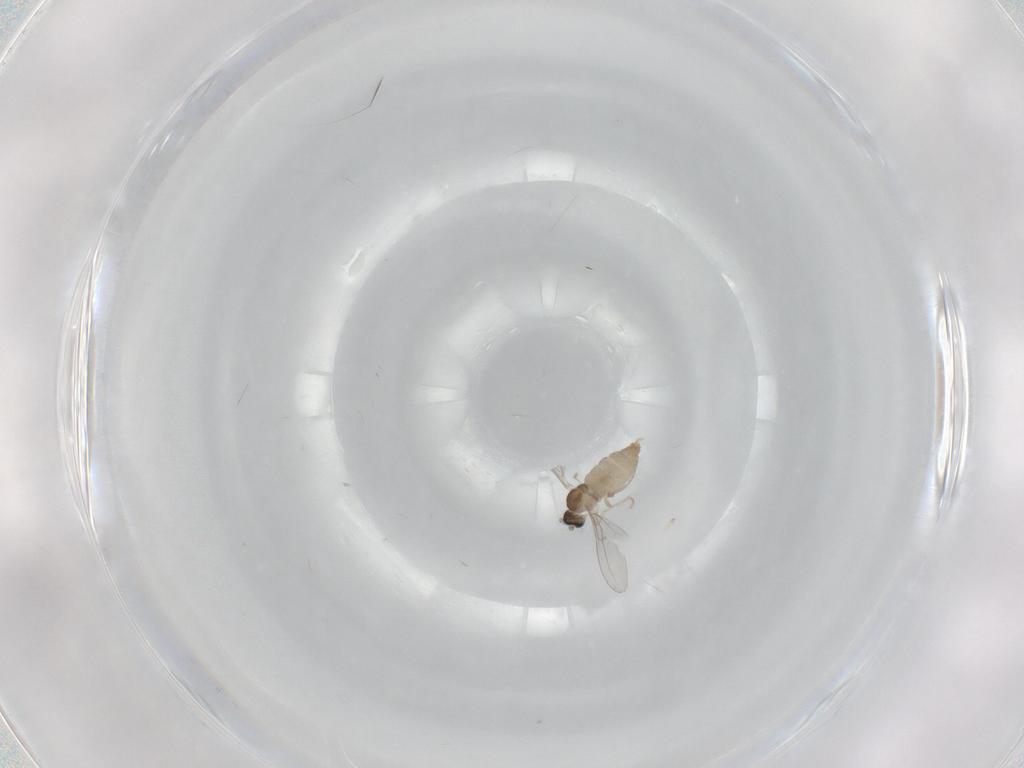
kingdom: Animalia
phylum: Arthropoda
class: Insecta
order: Diptera
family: Cecidomyiidae
